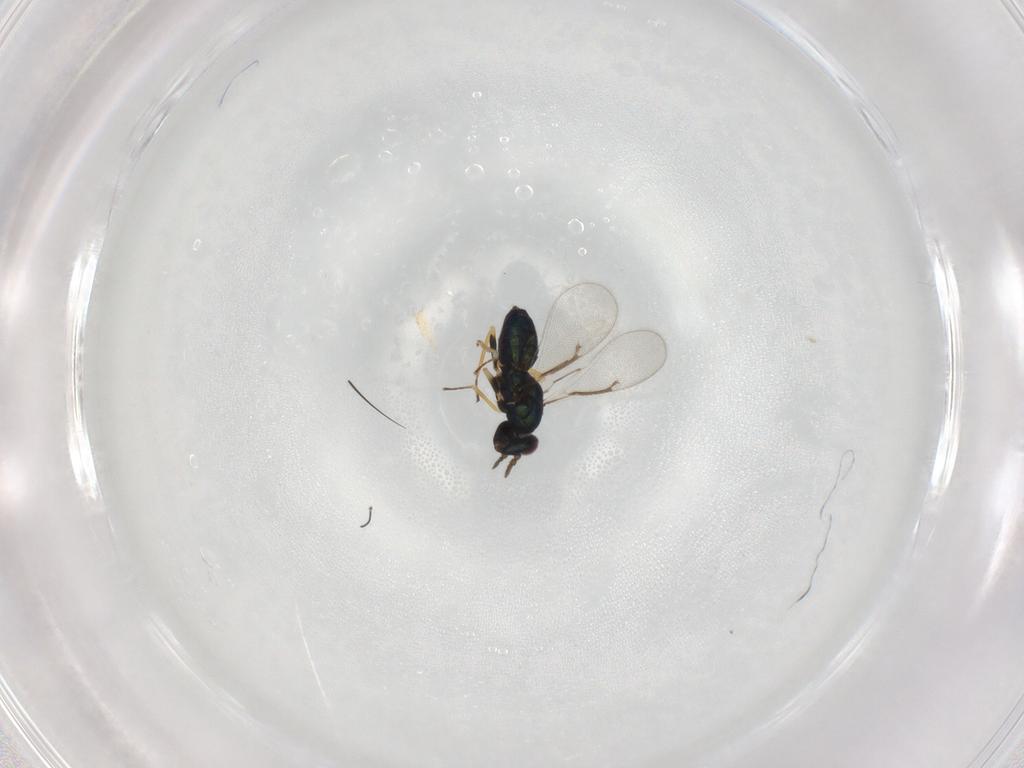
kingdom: Animalia
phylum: Arthropoda
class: Insecta
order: Hymenoptera
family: Eulophidae
